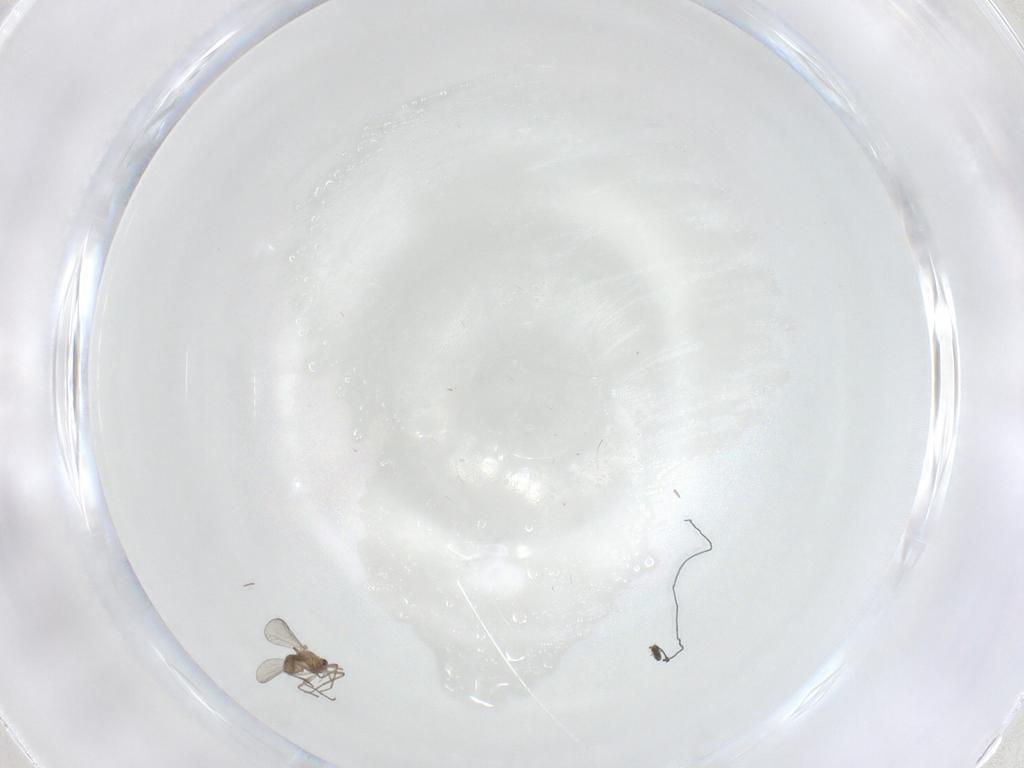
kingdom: Animalia
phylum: Arthropoda
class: Insecta
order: Diptera
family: Chironomidae
